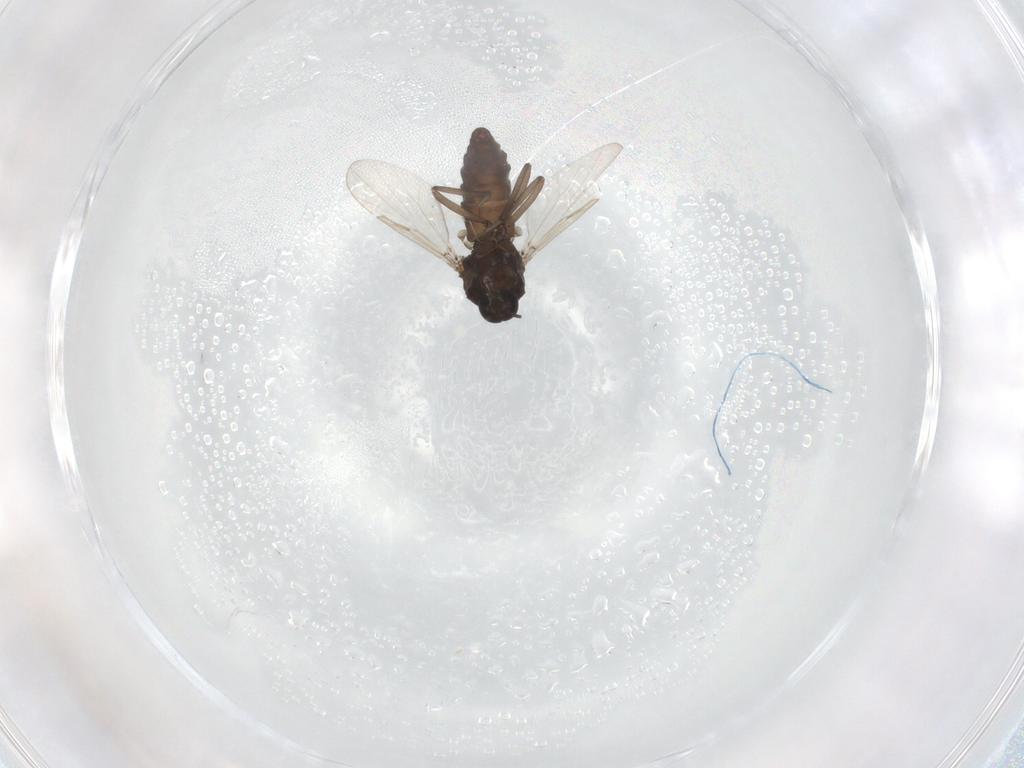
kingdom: Animalia
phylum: Arthropoda
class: Insecta
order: Diptera
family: Ceratopogonidae
